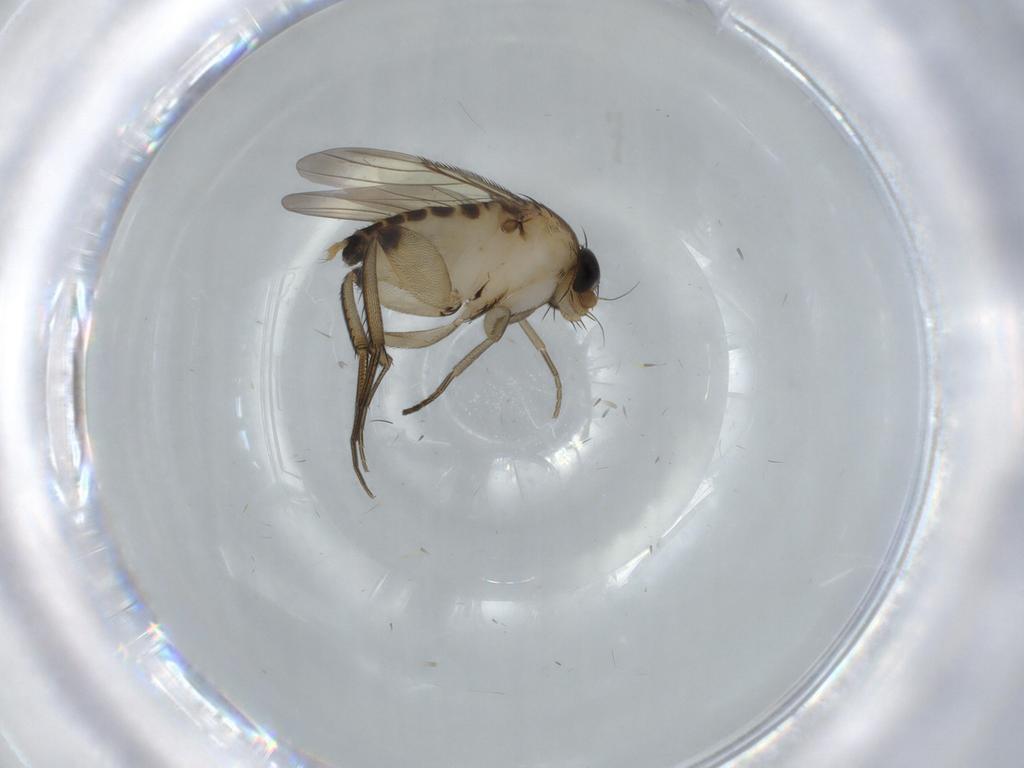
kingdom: Animalia
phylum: Arthropoda
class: Insecta
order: Diptera
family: Phoridae
